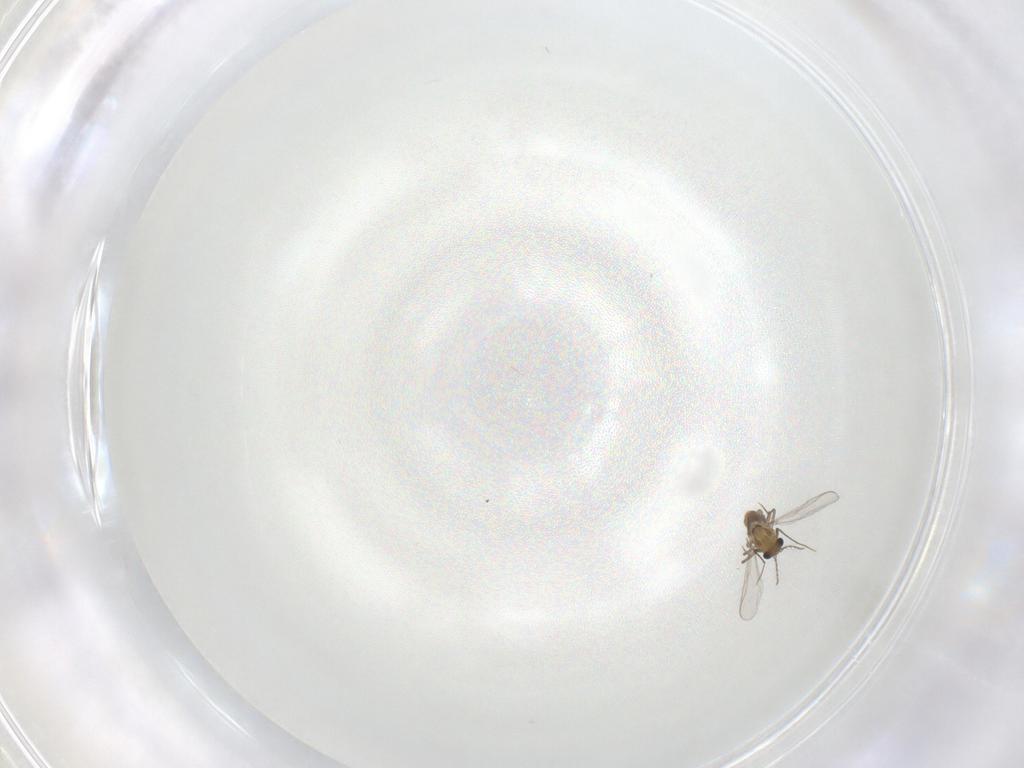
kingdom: Animalia
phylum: Arthropoda
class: Insecta
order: Diptera
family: Chironomidae
